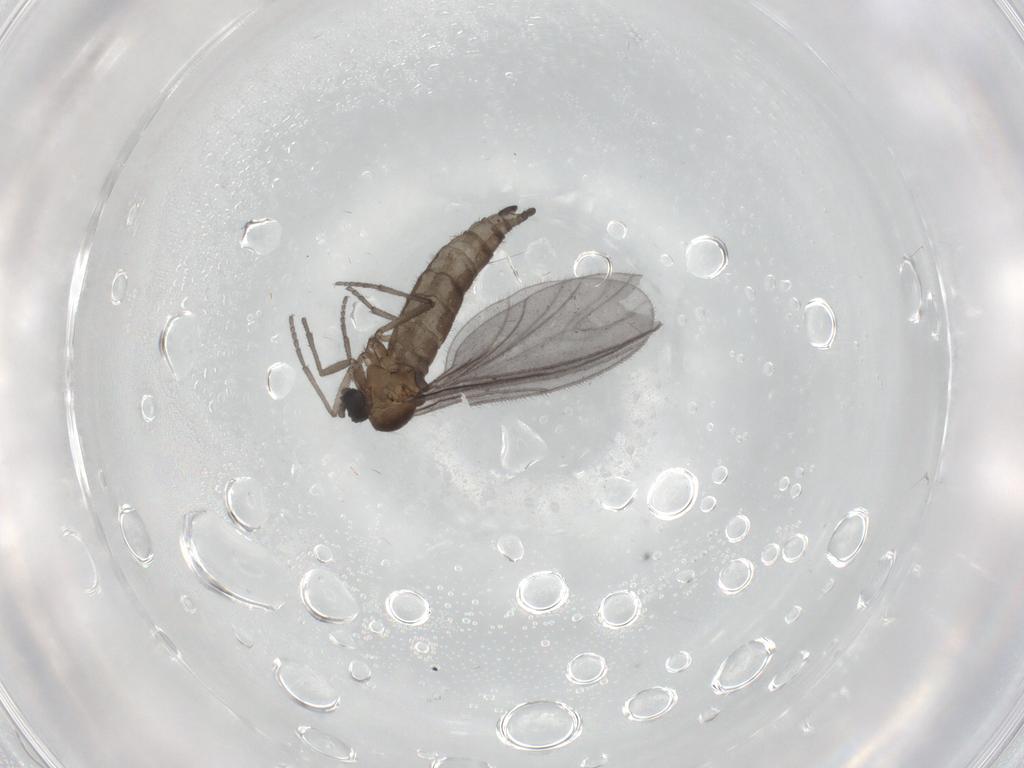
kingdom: Animalia
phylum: Arthropoda
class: Insecta
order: Diptera
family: Sciaridae
